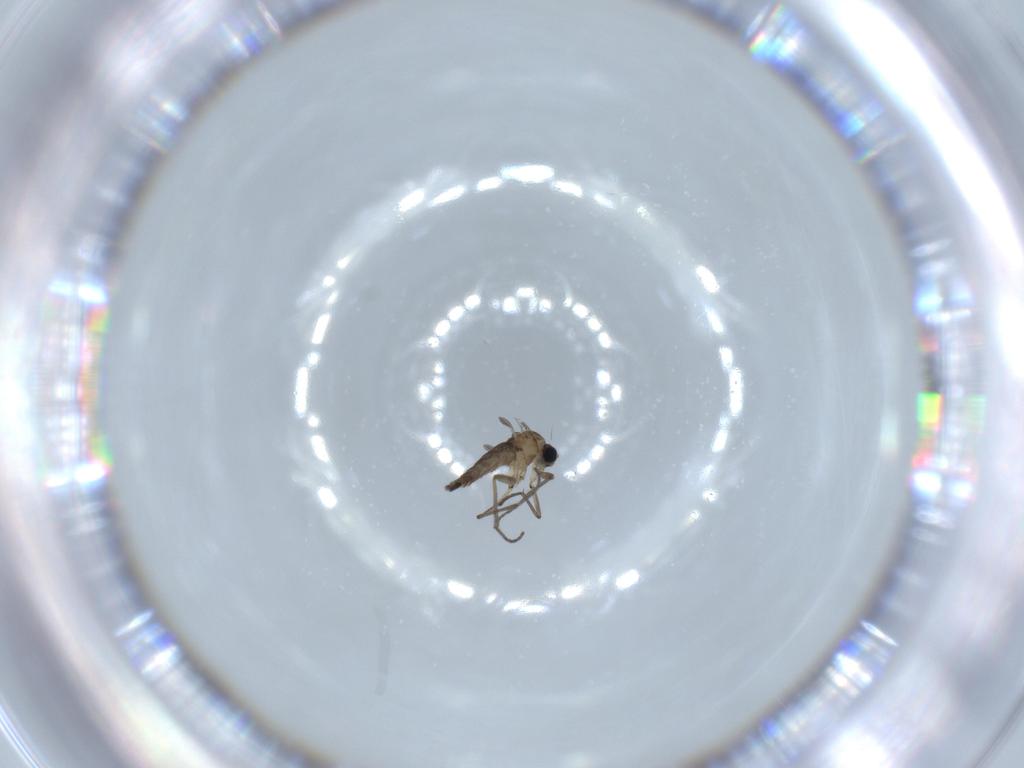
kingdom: Animalia
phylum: Arthropoda
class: Insecta
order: Diptera
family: Sciaridae
